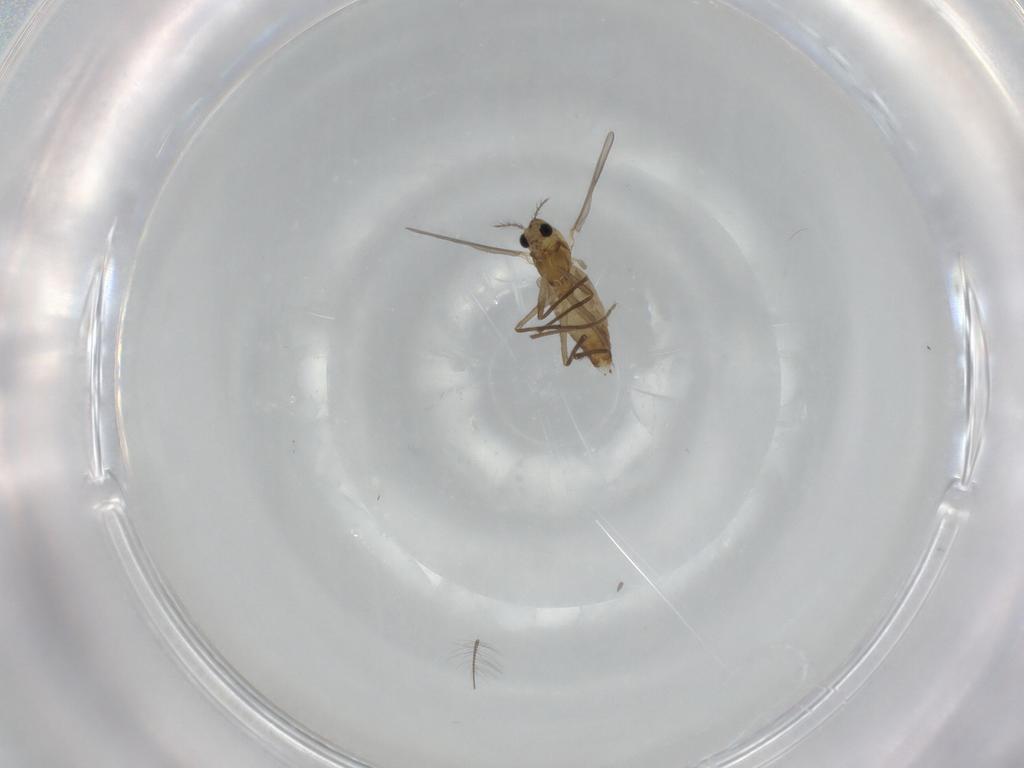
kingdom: Animalia
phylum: Arthropoda
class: Insecta
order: Diptera
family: Chironomidae
